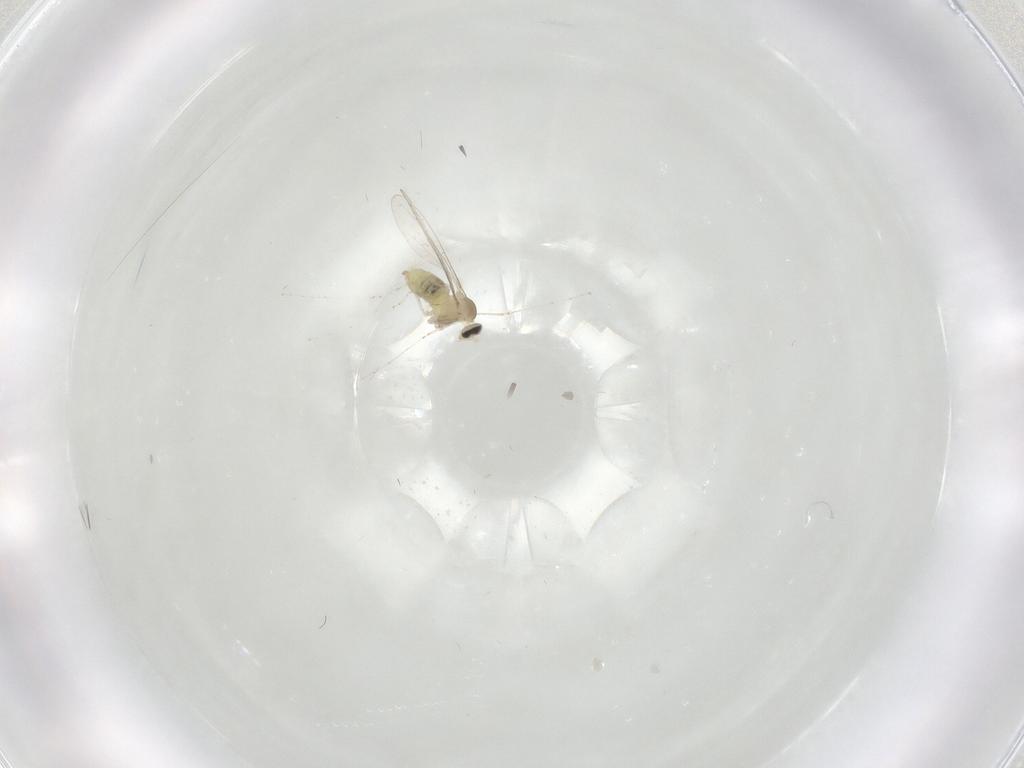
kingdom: Animalia
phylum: Arthropoda
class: Insecta
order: Diptera
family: Cecidomyiidae
